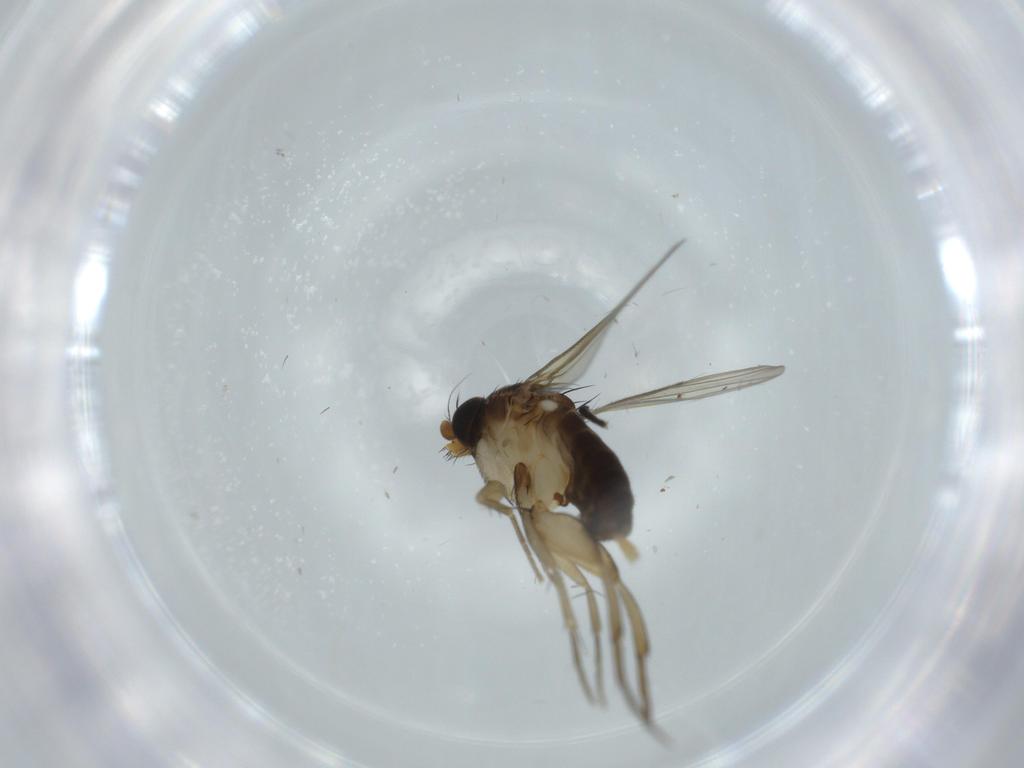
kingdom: Animalia
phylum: Arthropoda
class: Insecta
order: Diptera
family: Phoridae
